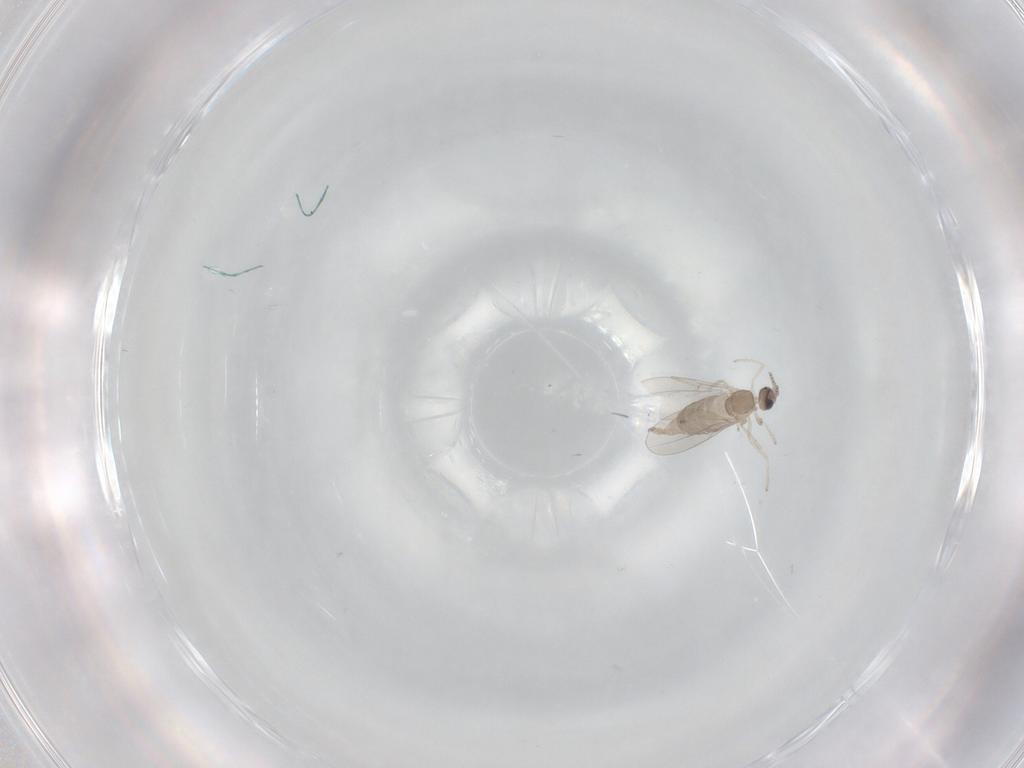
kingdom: Animalia
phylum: Arthropoda
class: Insecta
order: Diptera
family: Cecidomyiidae
